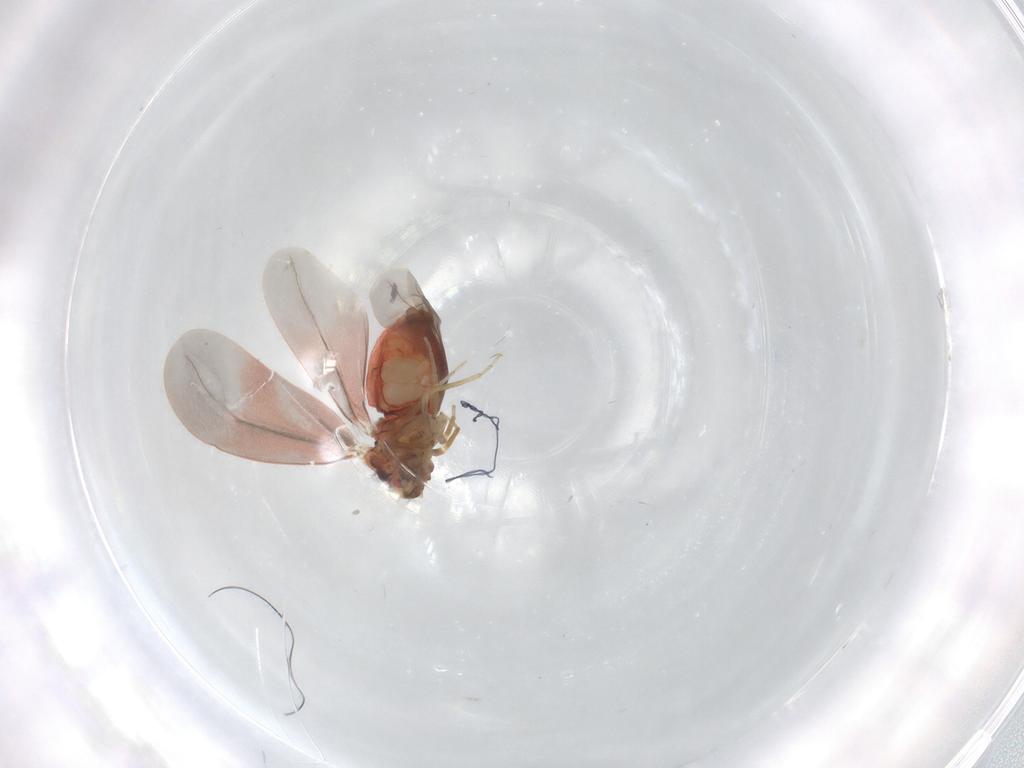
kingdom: Animalia
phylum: Arthropoda
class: Insecta
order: Hemiptera
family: Aleyrodidae
